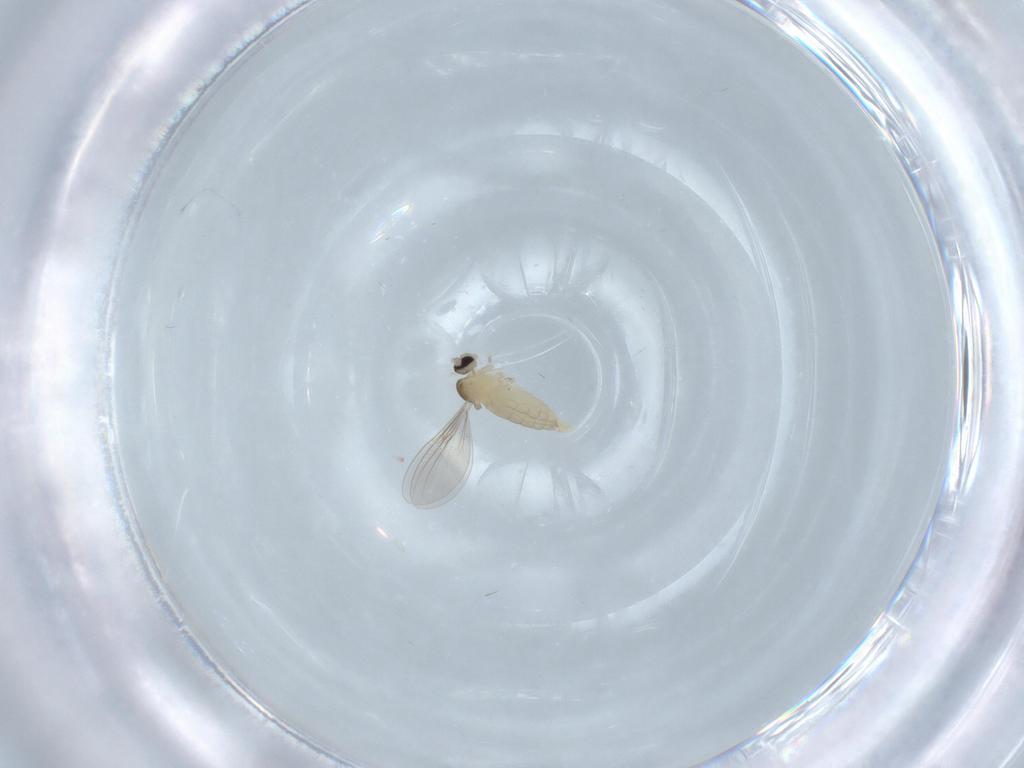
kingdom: Animalia
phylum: Arthropoda
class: Insecta
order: Diptera
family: Cecidomyiidae
